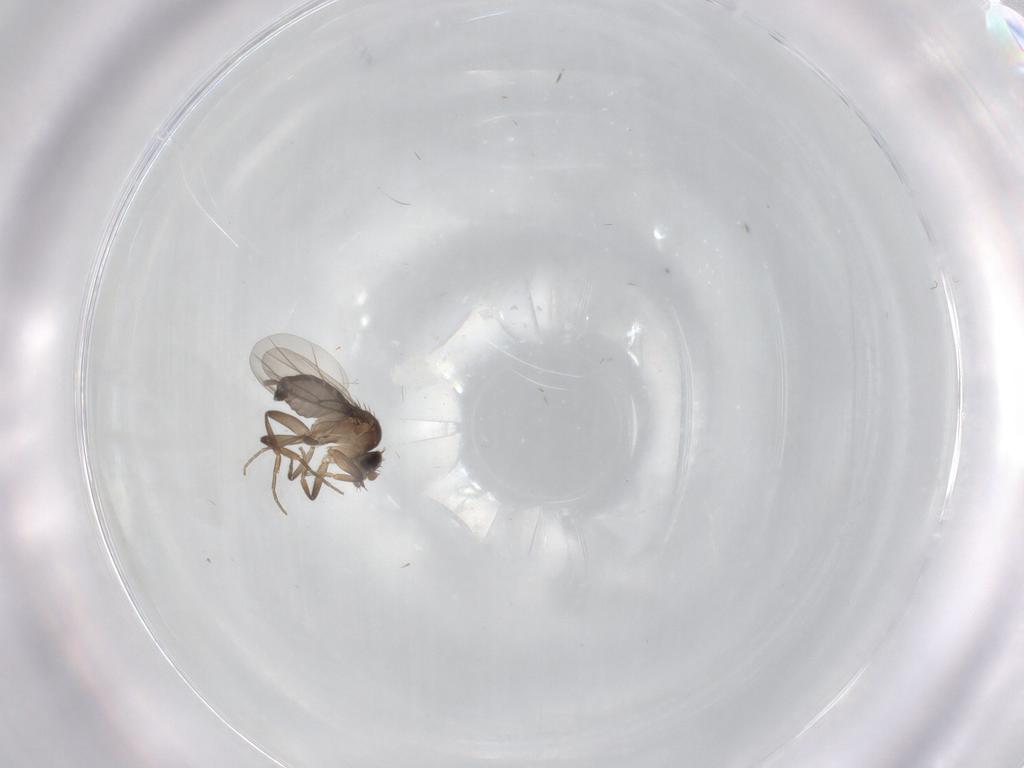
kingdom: Animalia
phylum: Arthropoda
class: Insecta
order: Diptera
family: Phoridae
